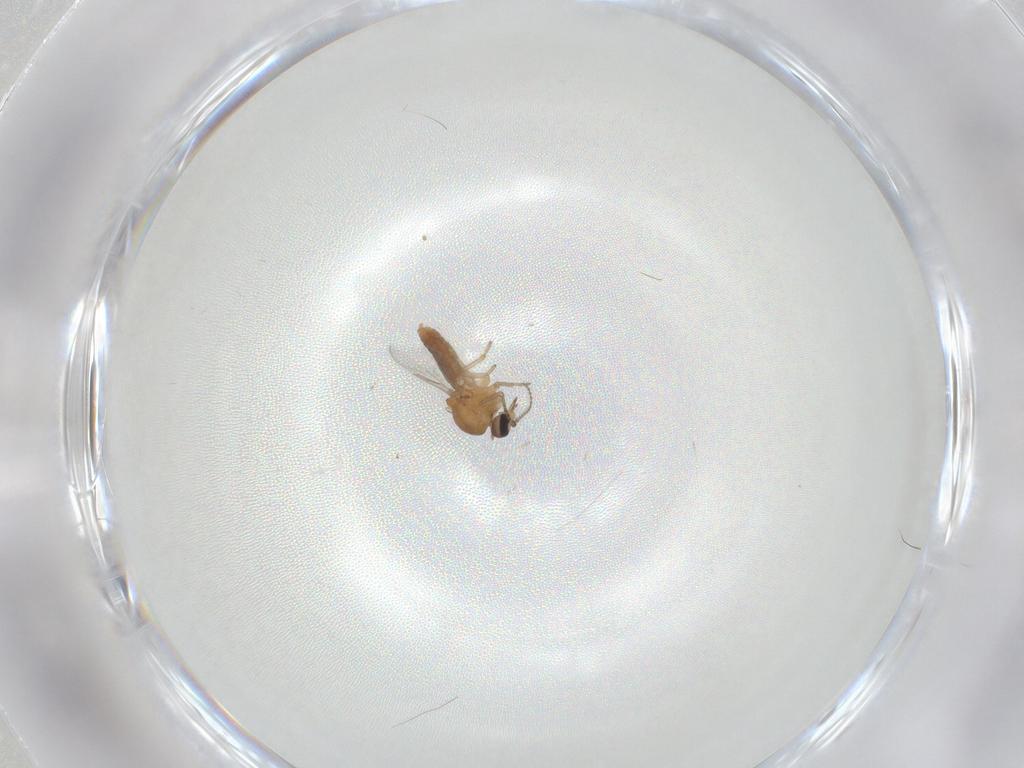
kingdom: Animalia
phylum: Arthropoda
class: Insecta
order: Diptera
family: Ceratopogonidae
